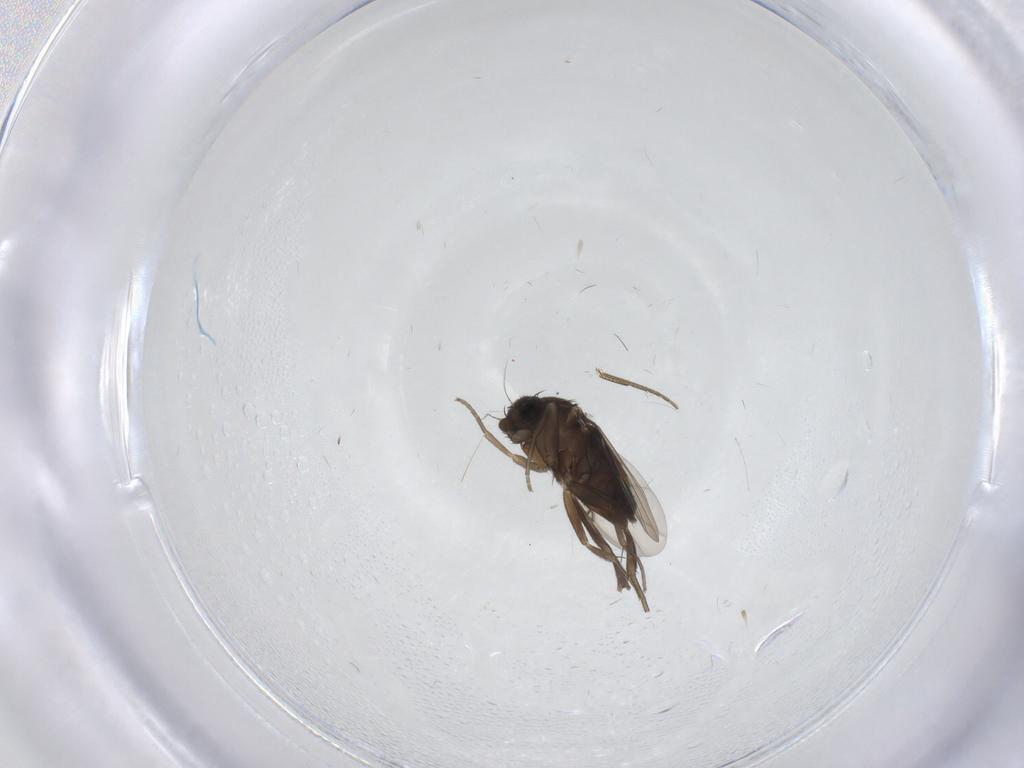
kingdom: Animalia
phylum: Arthropoda
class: Insecta
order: Diptera
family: Phoridae
